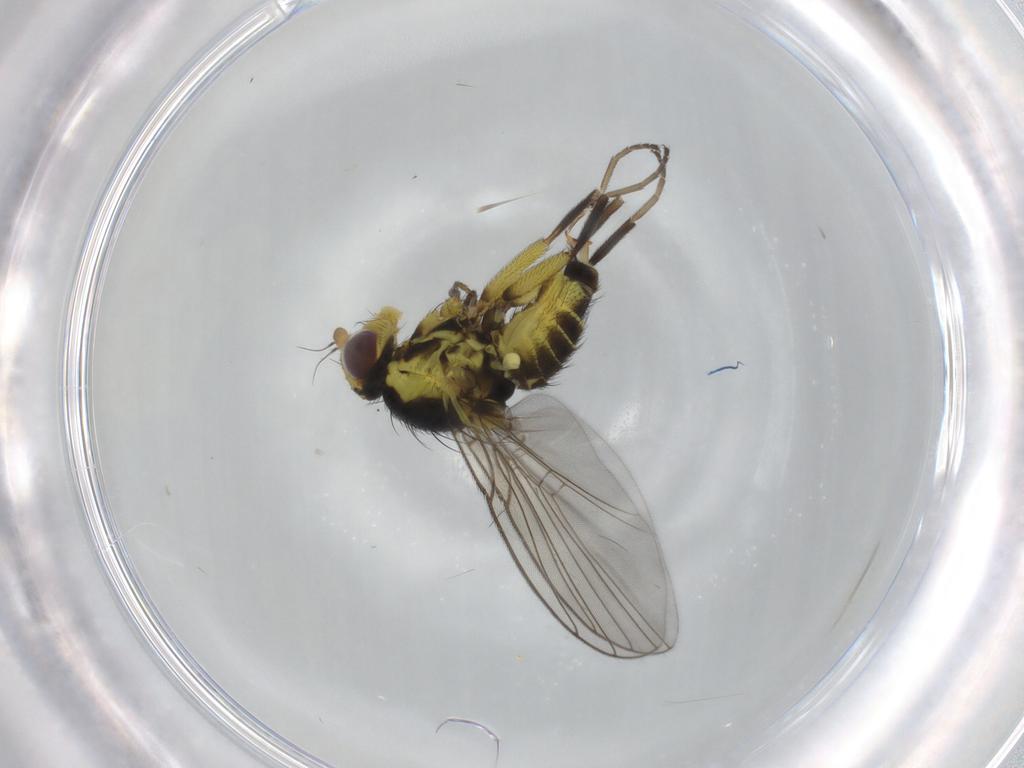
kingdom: Animalia
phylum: Arthropoda
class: Insecta
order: Diptera
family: Agromyzidae
